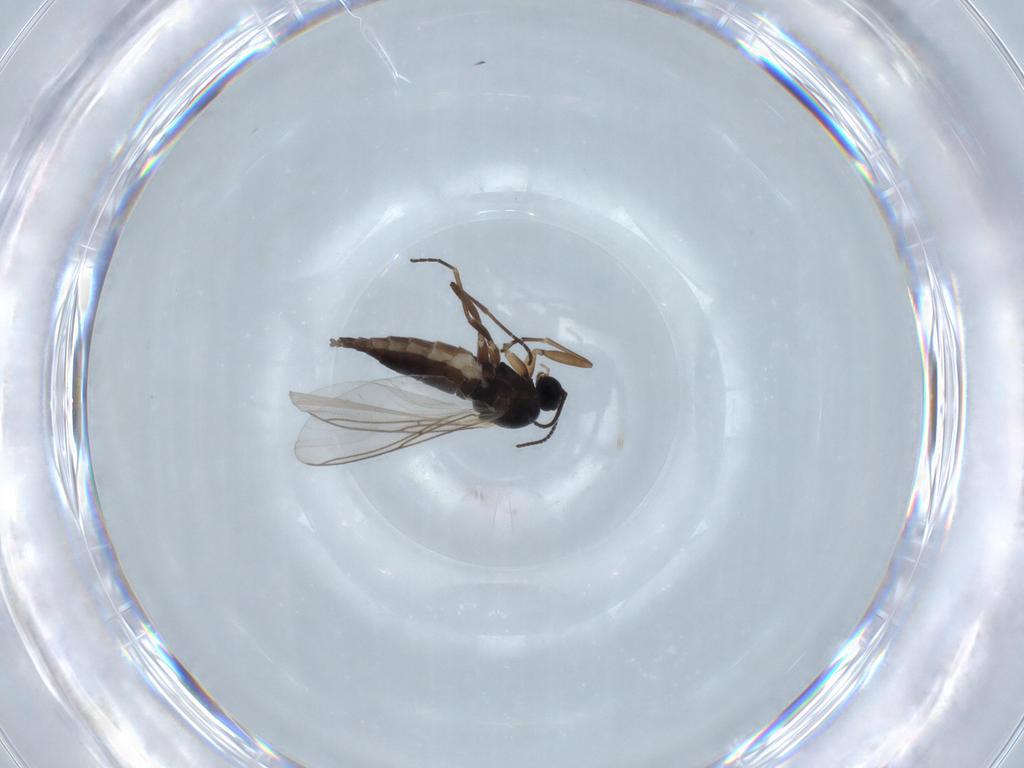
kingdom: Animalia
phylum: Arthropoda
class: Insecta
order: Diptera
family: Sciaridae
